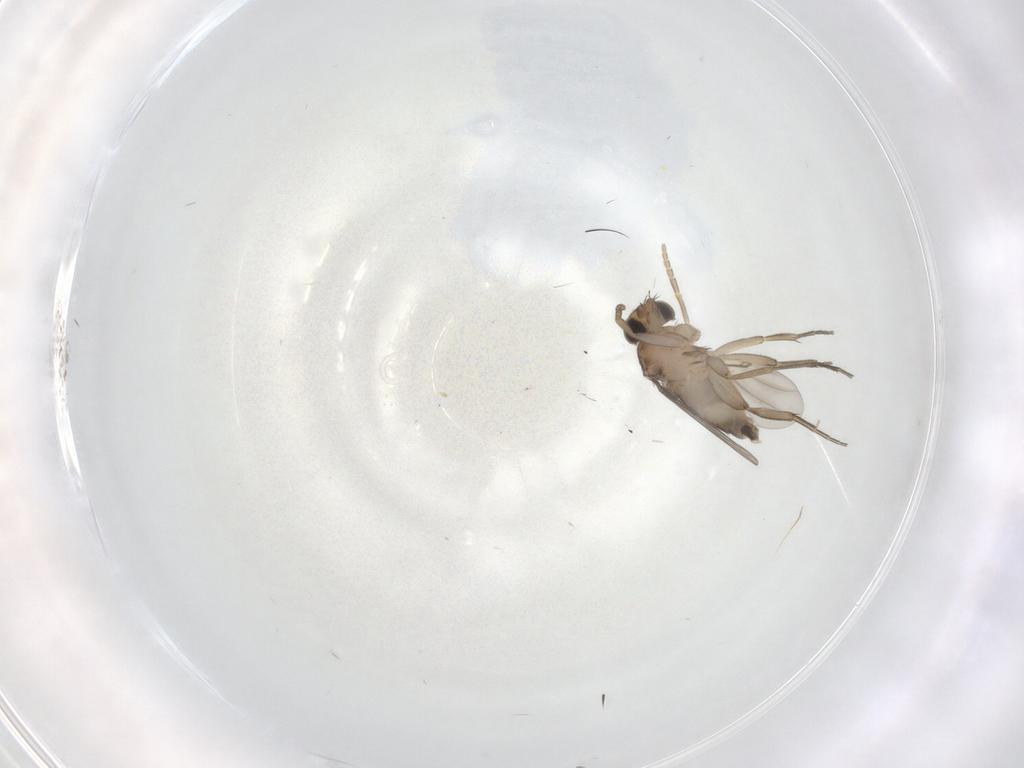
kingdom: Animalia
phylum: Arthropoda
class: Insecta
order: Diptera
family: Phoridae
